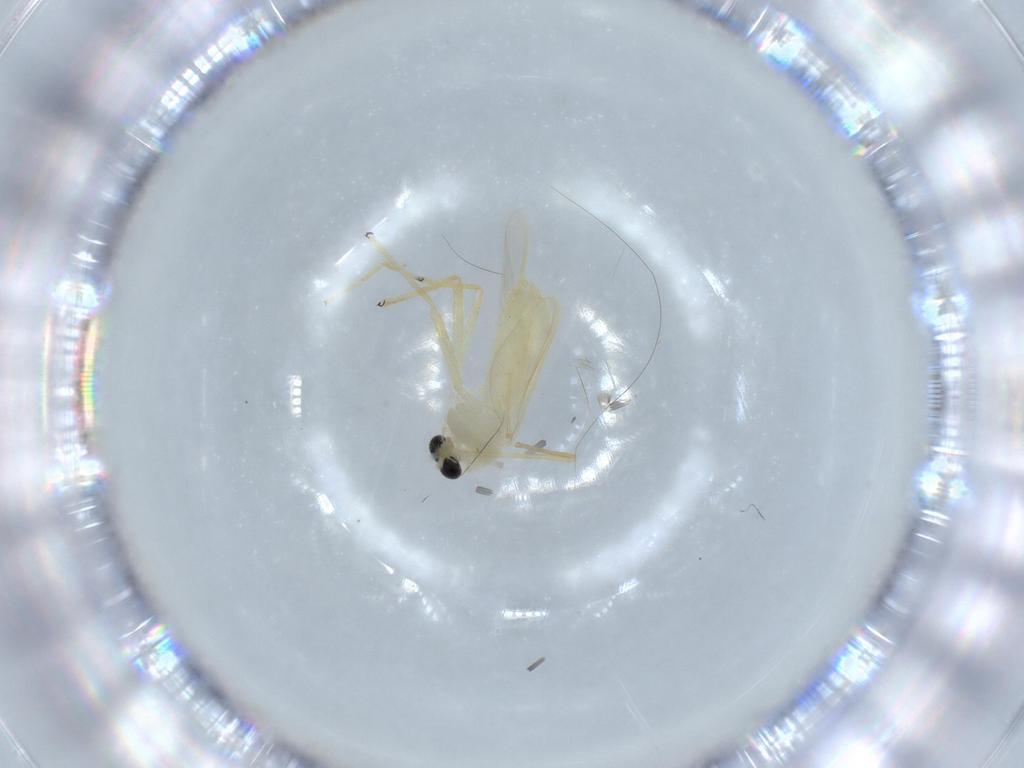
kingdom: Animalia
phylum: Arthropoda
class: Insecta
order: Diptera
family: Chironomidae
